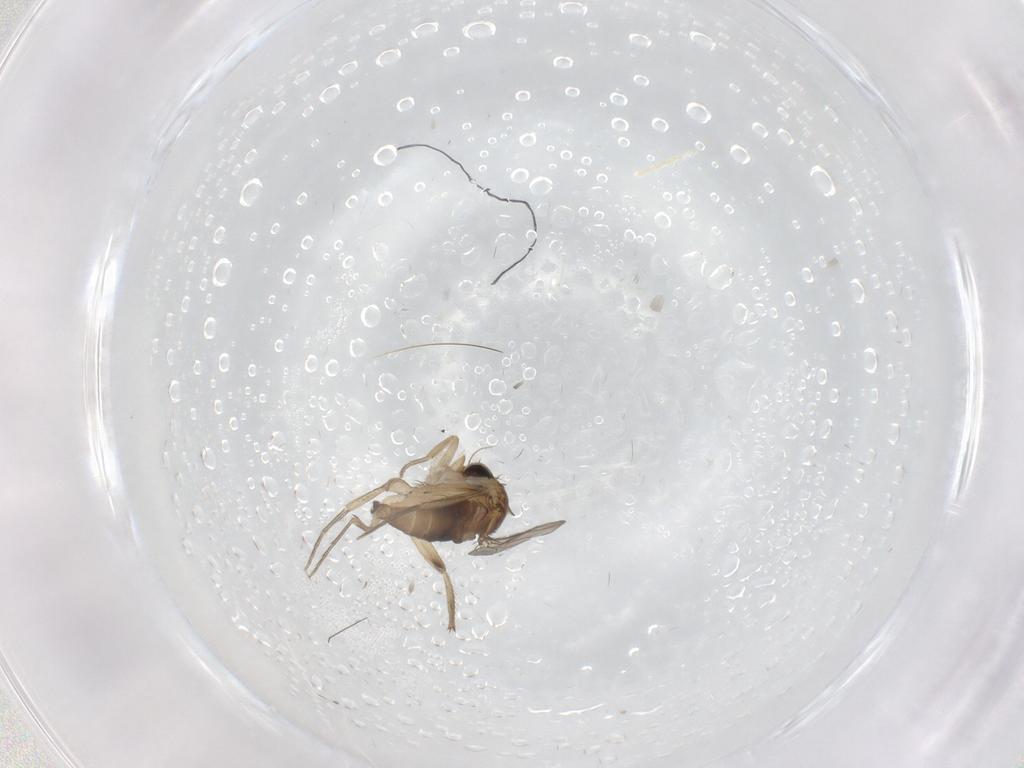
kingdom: Animalia
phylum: Arthropoda
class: Insecta
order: Diptera
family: Phoridae
